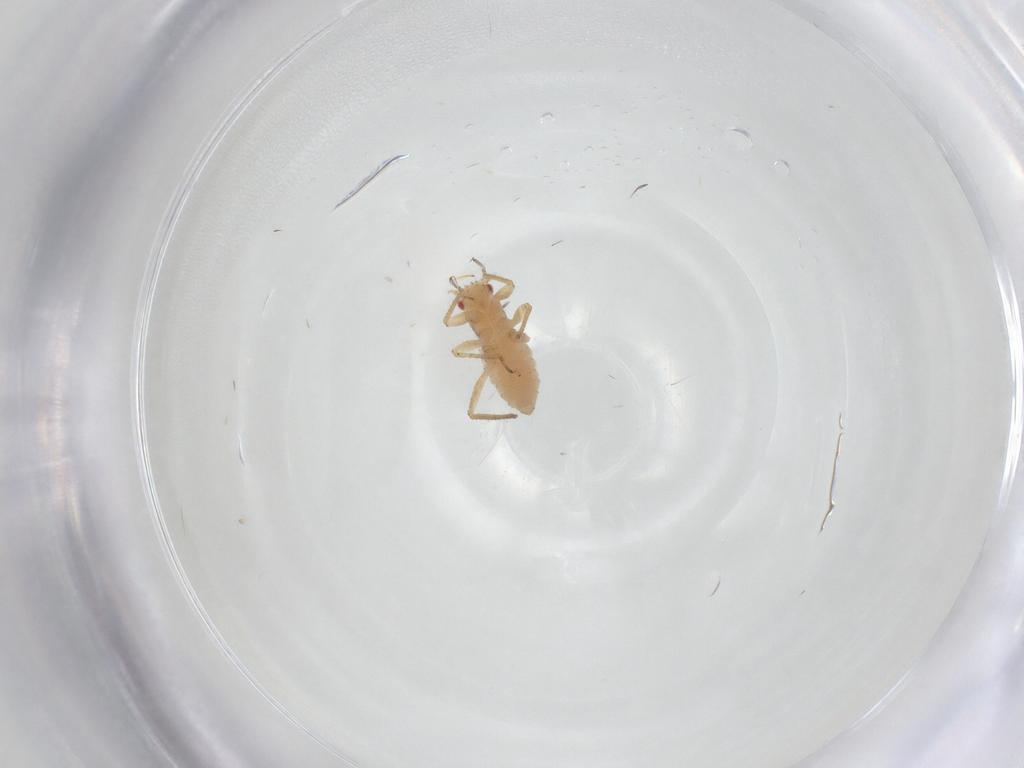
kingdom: Animalia
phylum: Arthropoda
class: Insecta
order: Hemiptera
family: Aphididae
